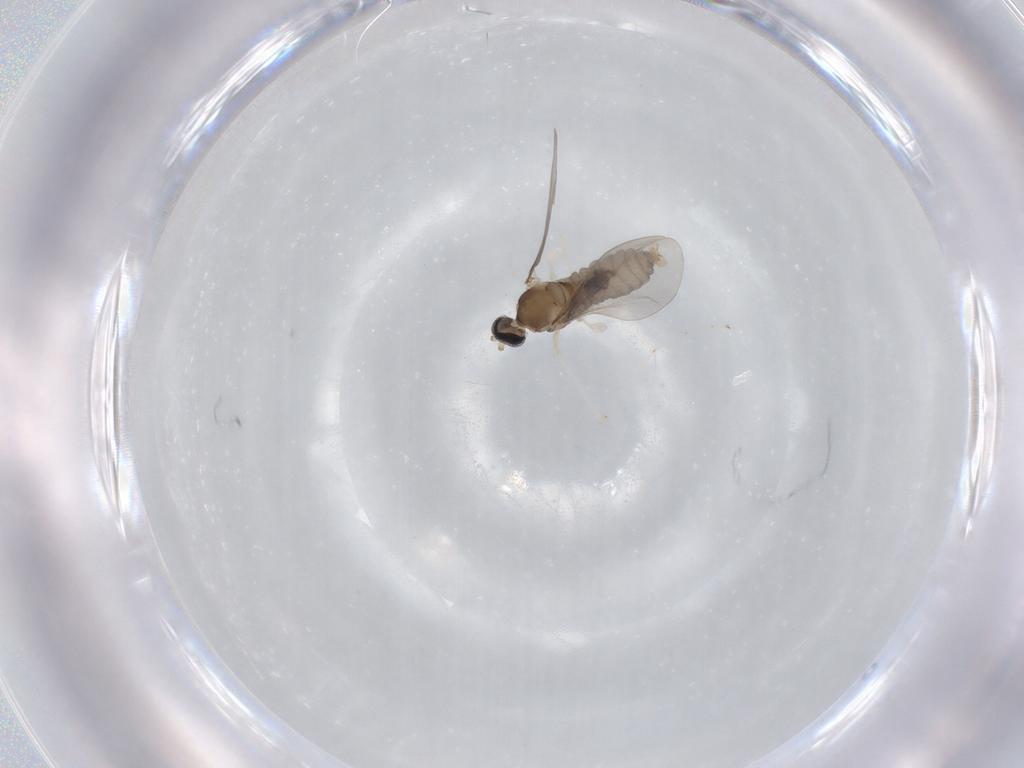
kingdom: Animalia
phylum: Arthropoda
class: Insecta
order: Diptera
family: Cecidomyiidae
